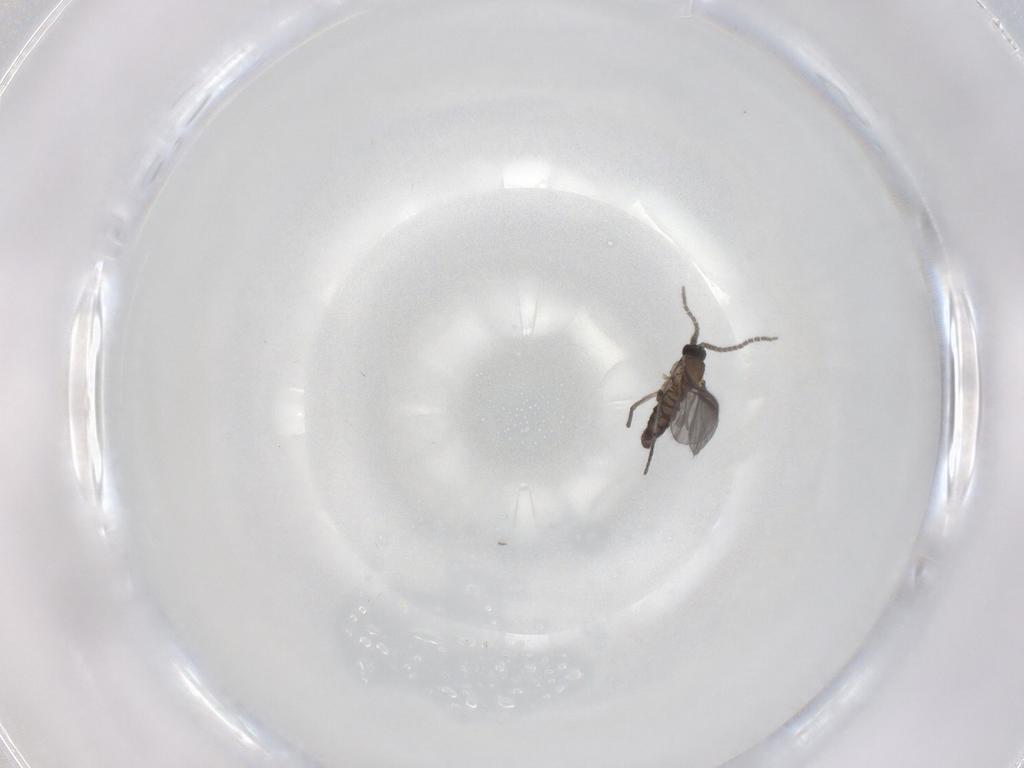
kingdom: Animalia
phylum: Arthropoda
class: Insecta
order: Diptera
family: Sciaridae
